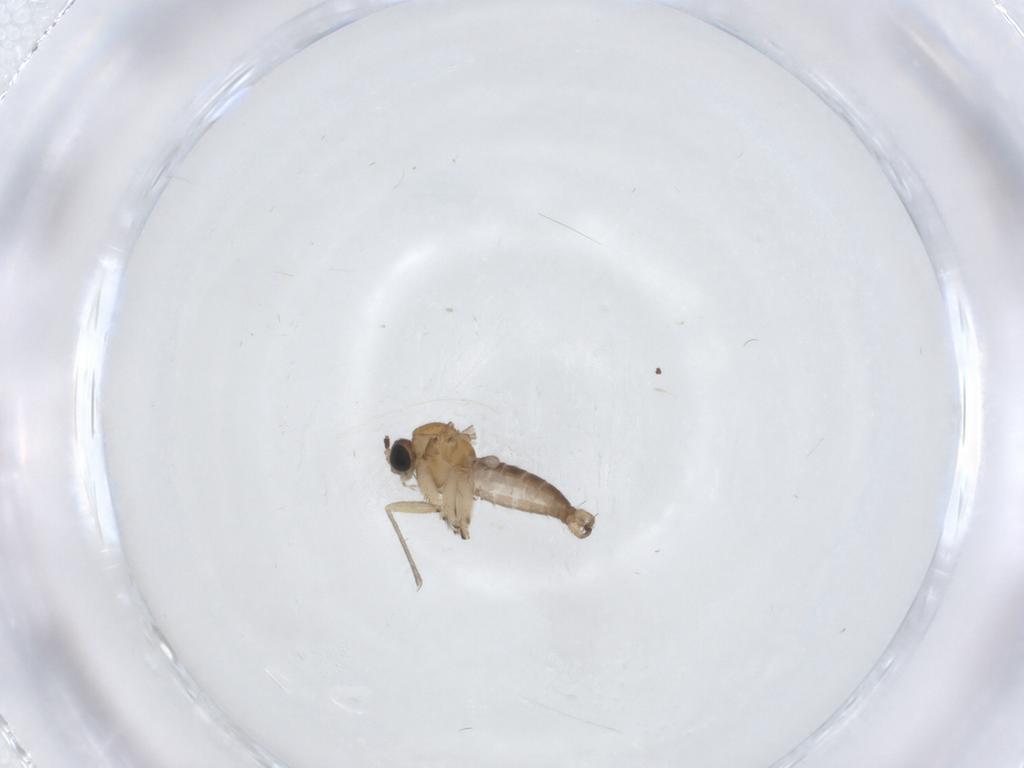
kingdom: Animalia
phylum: Arthropoda
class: Insecta
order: Diptera
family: Sciaridae
